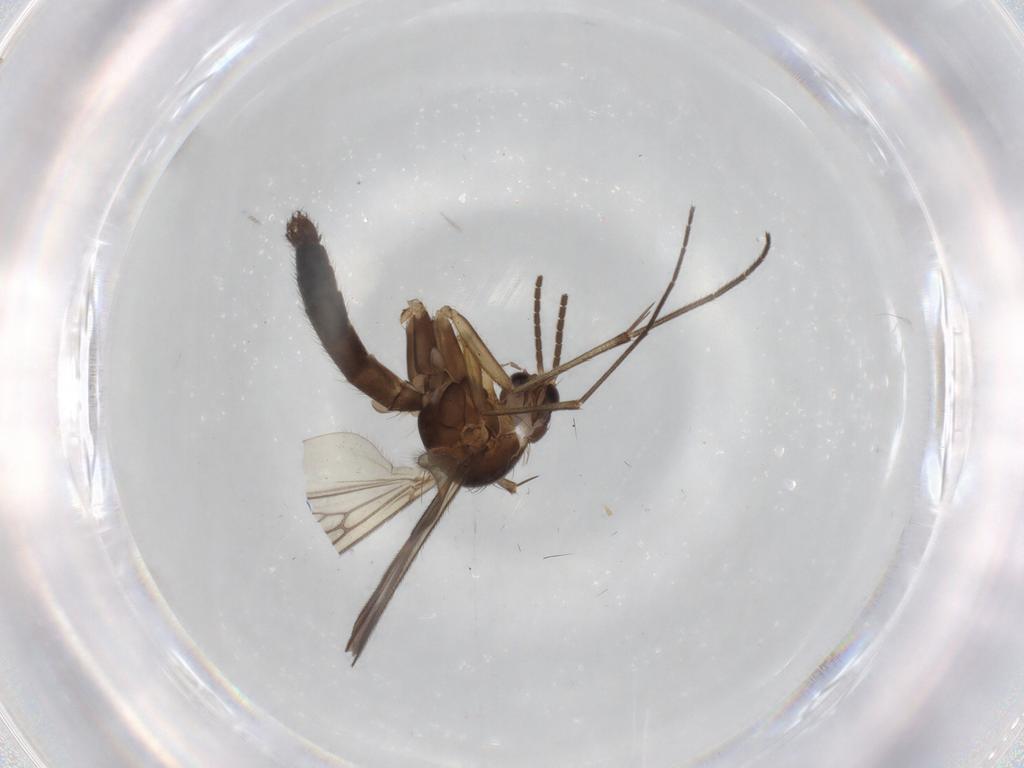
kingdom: Animalia
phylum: Arthropoda
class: Insecta
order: Diptera
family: Mycetophilidae
